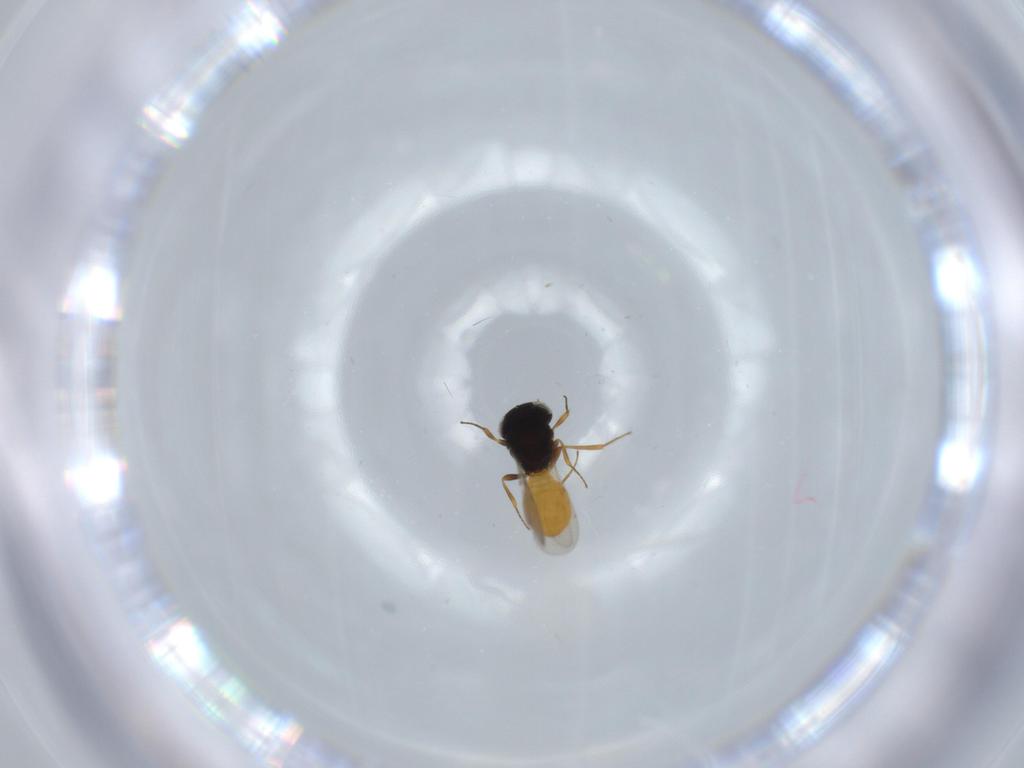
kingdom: Animalia
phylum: Arthropoda
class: Insecta
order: Hymenoptera
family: Scelionidae
